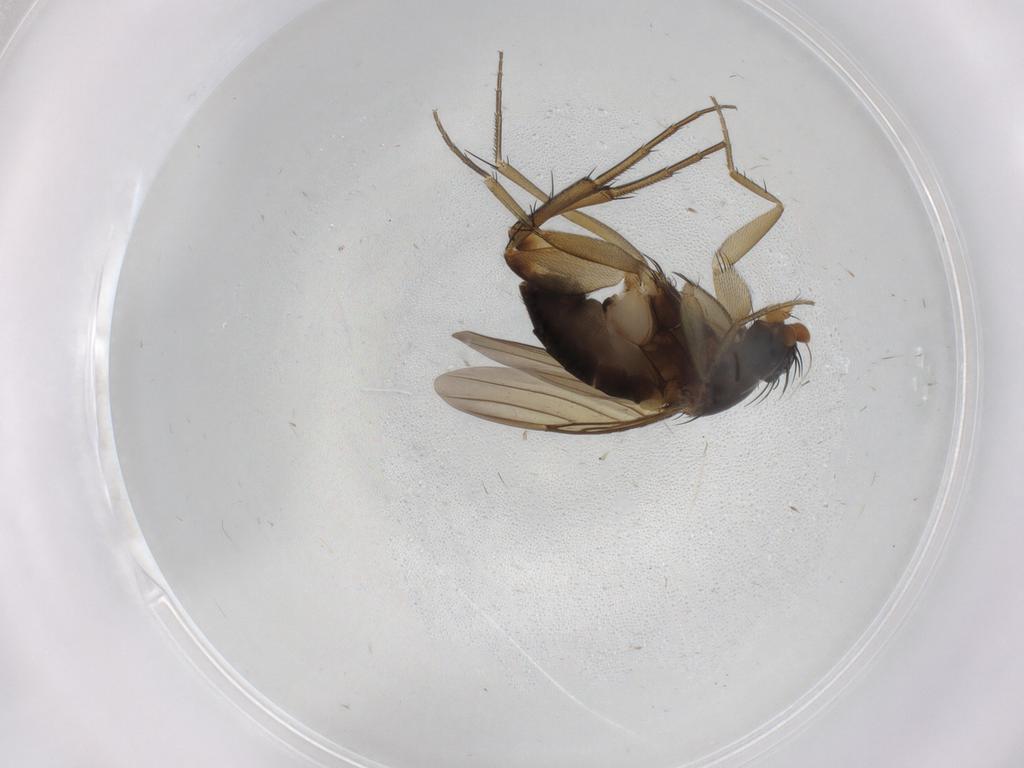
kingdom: Animalia
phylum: Arthropoda
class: Insecta
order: Diptera
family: Phoridae
